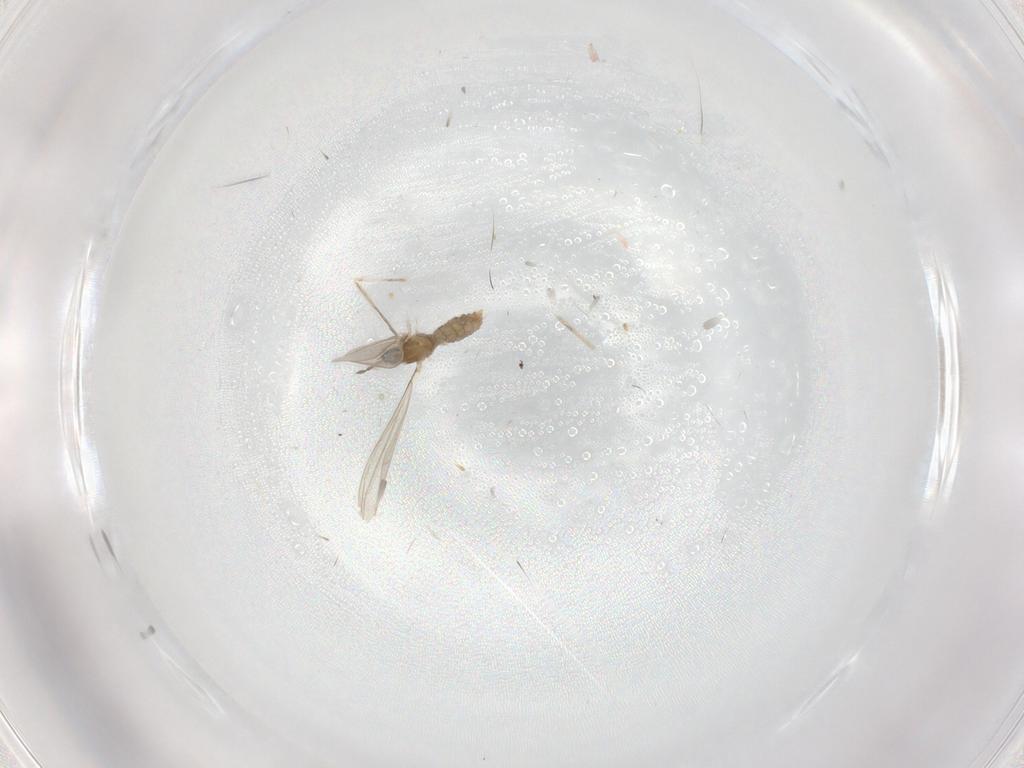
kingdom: Animalia
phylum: Arthropoda
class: Insecta
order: Diptera
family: Cecidomyiidae
